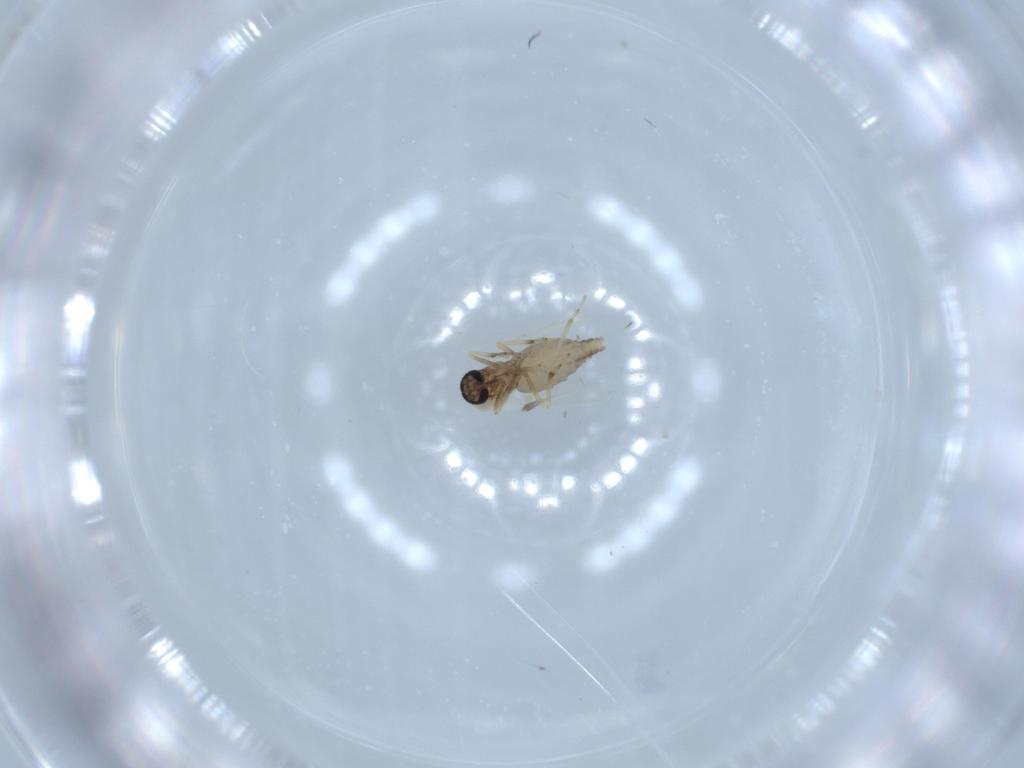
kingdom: Animalia
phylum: Arthropoda
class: Insecta
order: Diptera
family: Ceratopogonidae
